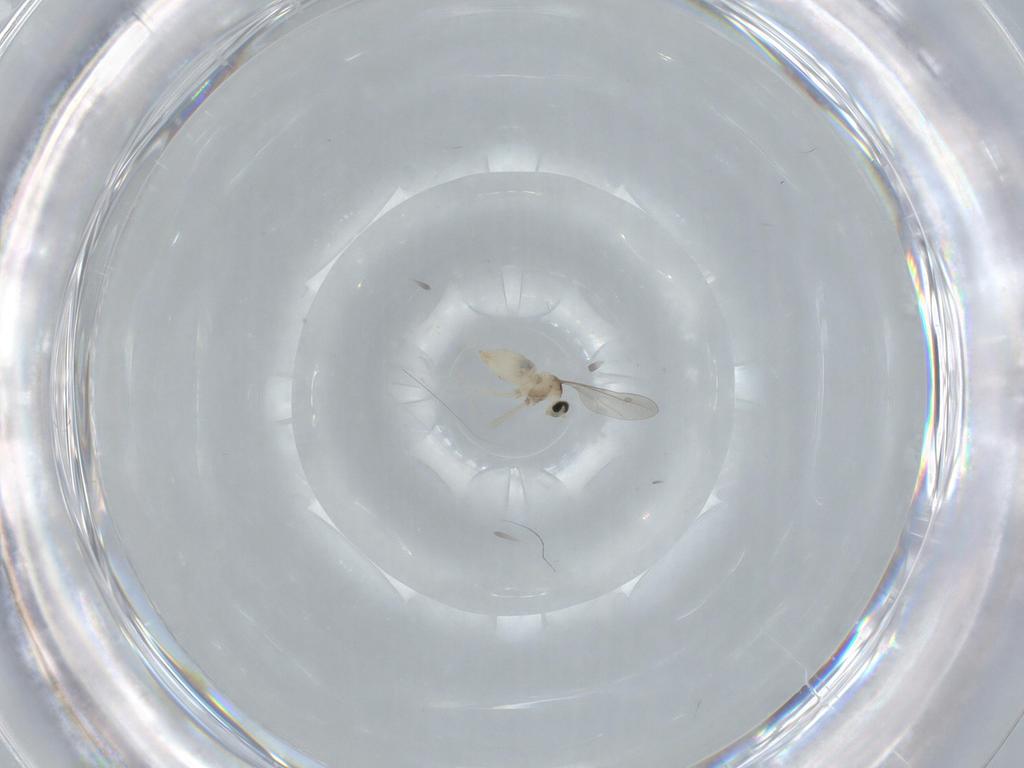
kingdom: Animalia
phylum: Arthropoda
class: Insecta
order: Diptera
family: Cecidomyiidae
